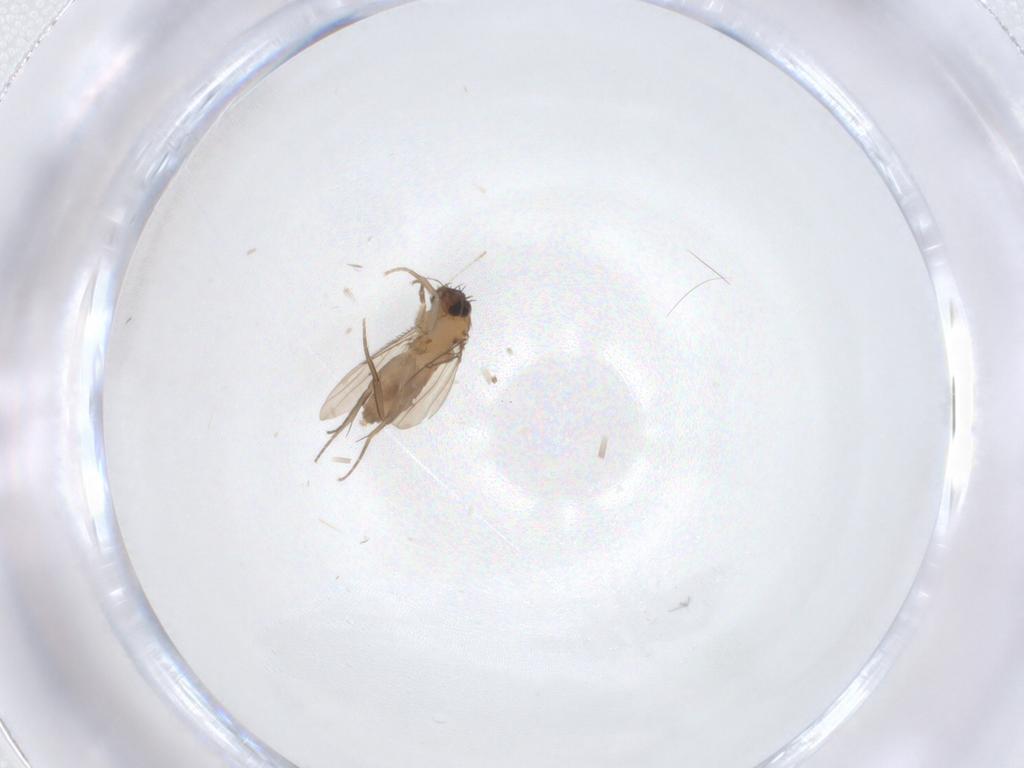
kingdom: Animalia
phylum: Arthropoda
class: Insecta
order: Diptera
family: Phoridae
